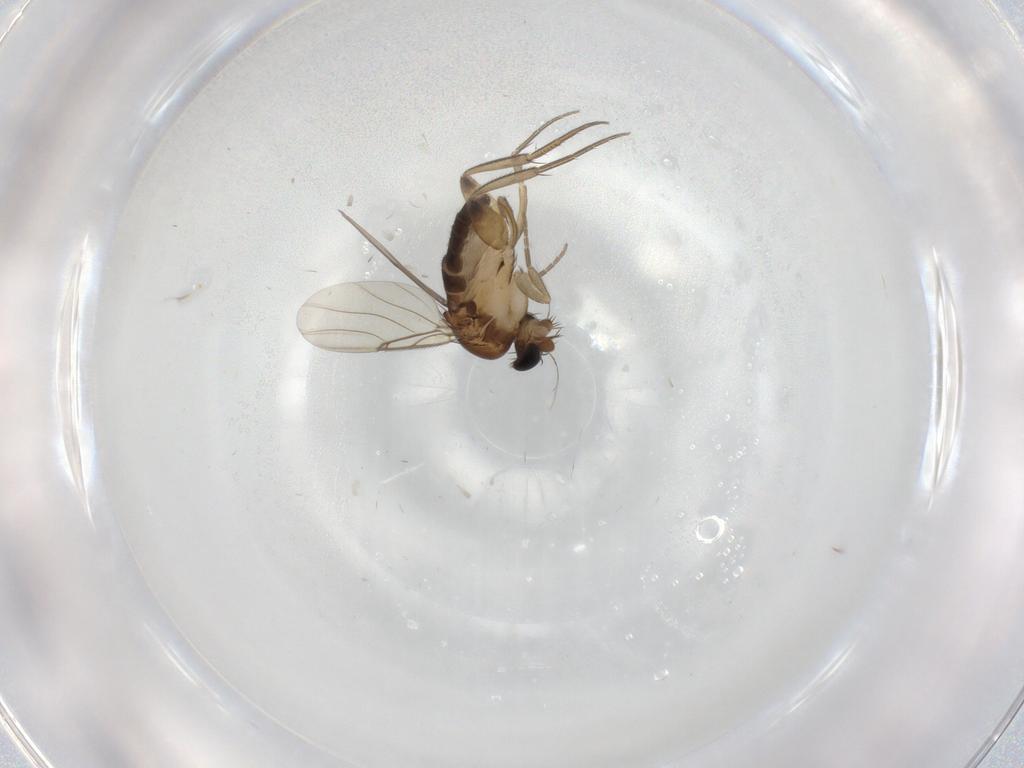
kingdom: Animalia
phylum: Arthropoda
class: Insecta
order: Diptera
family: Phoridae
